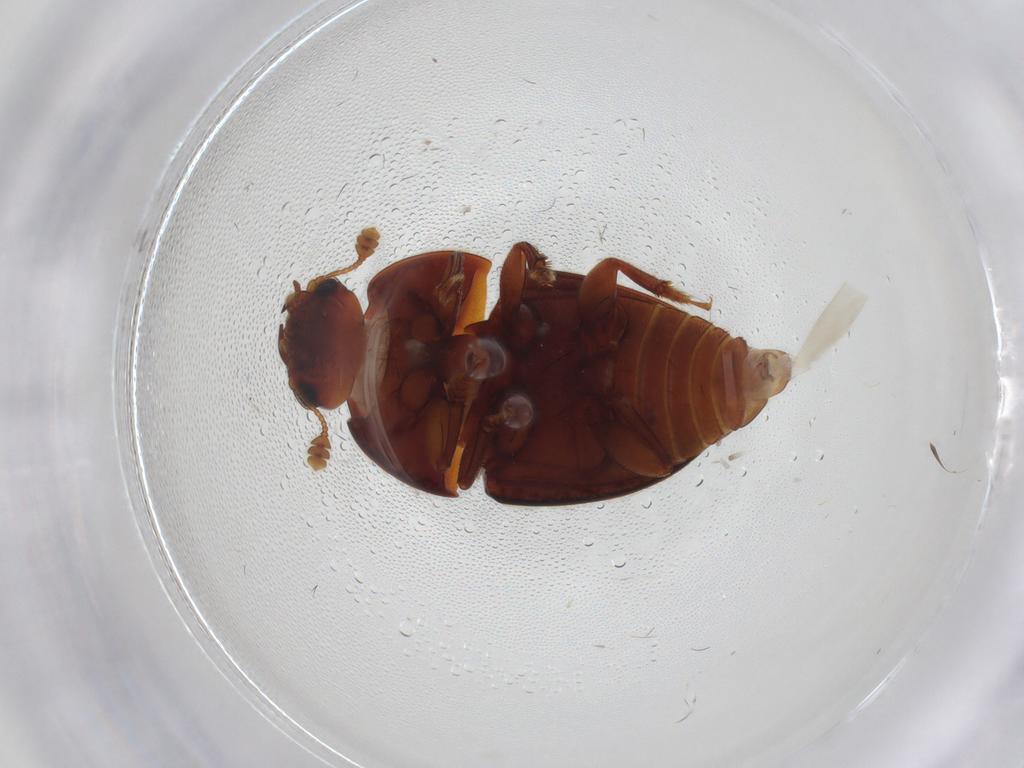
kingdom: Animalia
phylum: Arthropoda
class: Insecta
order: Coleoptera
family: Nitidulidae
